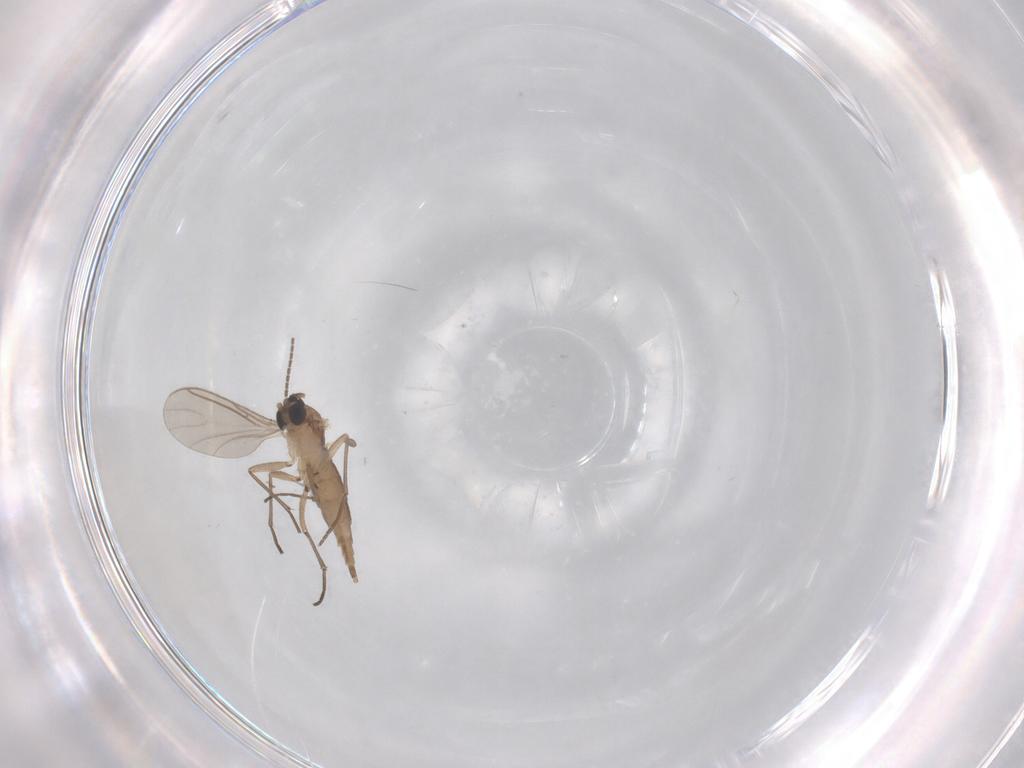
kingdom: Animalia
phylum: Arthropoda
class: Insecta
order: Diptera
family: Sciaridae
